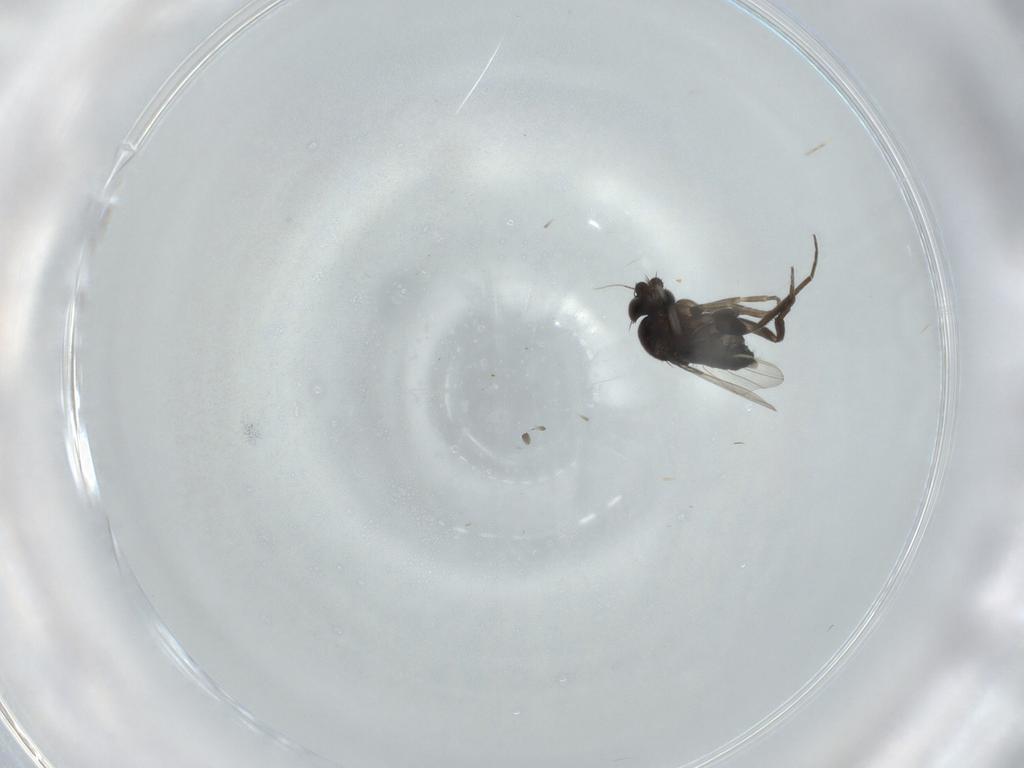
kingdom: Animalia
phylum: Arthropoda
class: Insecta
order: Diptera
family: Phoridae
